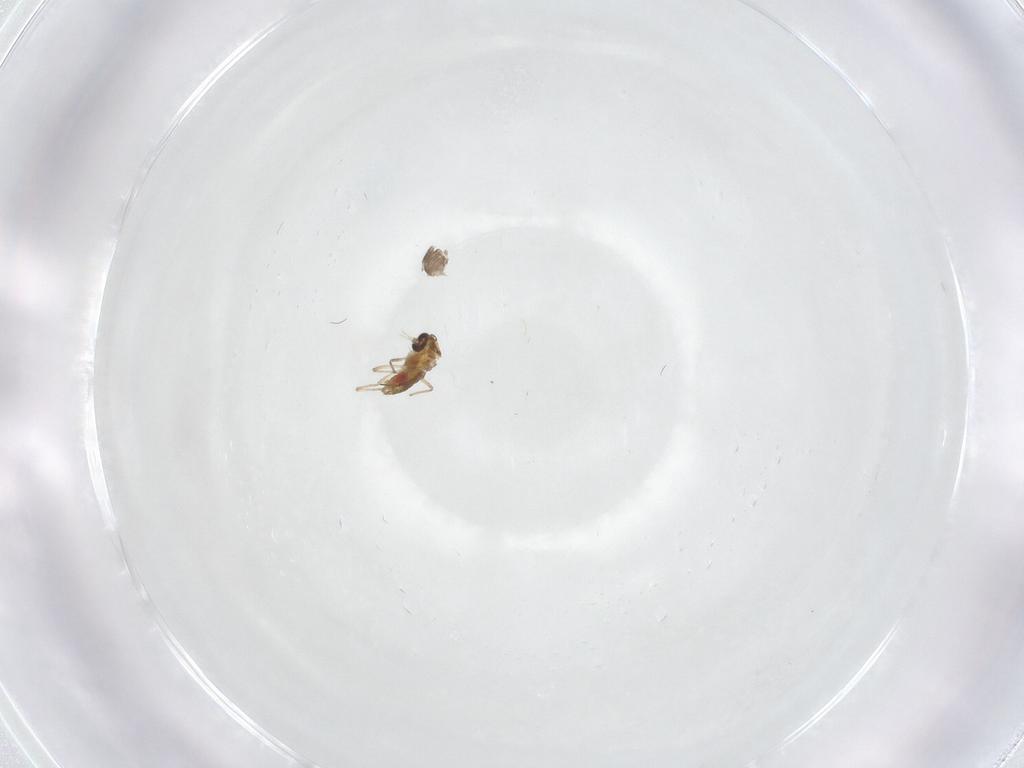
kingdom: Animalia
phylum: Arthropoda
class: Insecta
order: Diptera
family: Chironomidae
